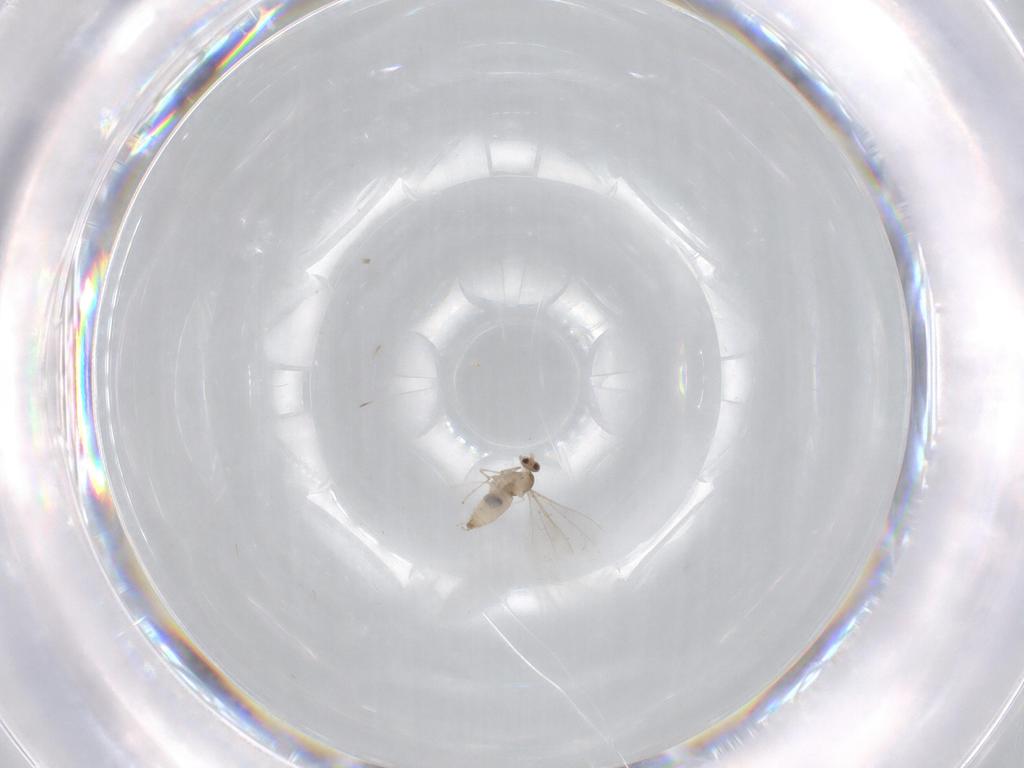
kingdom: Animalia
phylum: Arthropoda
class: Insecta
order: Diptera
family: Cecidomyiidae
